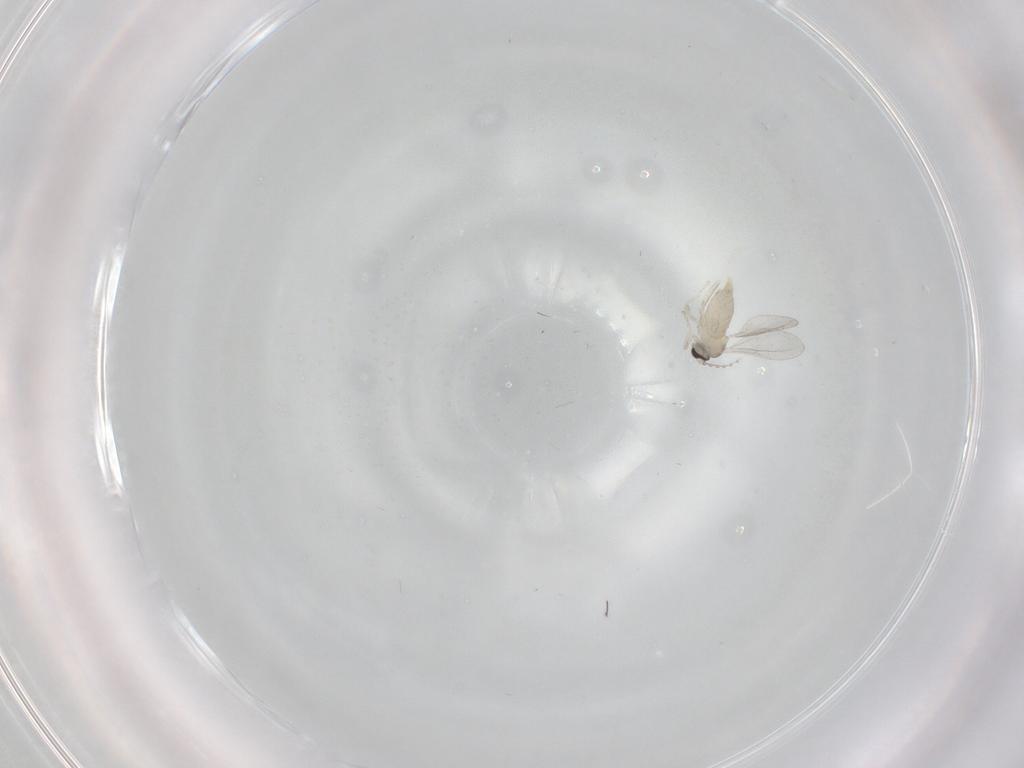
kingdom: Animalia
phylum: Arthropoda
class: Insecta
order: Diptera
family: Cecidomyiidae
